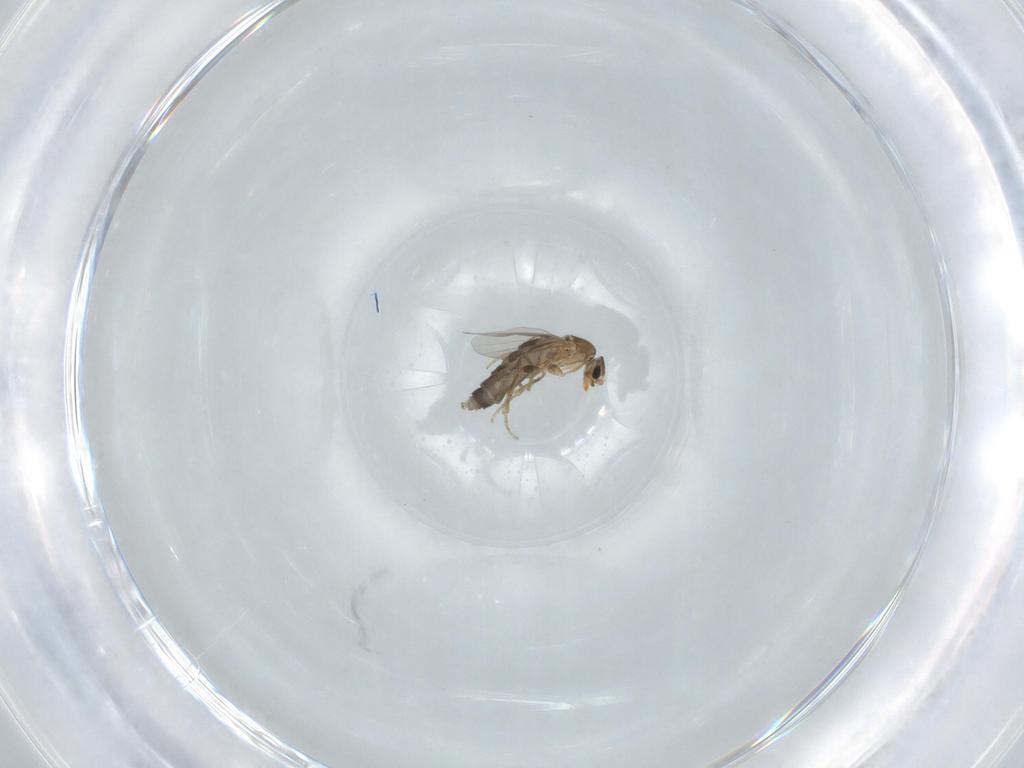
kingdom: Animalia
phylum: Arthropoda
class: Insecta
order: Diptera
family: Phoridae
